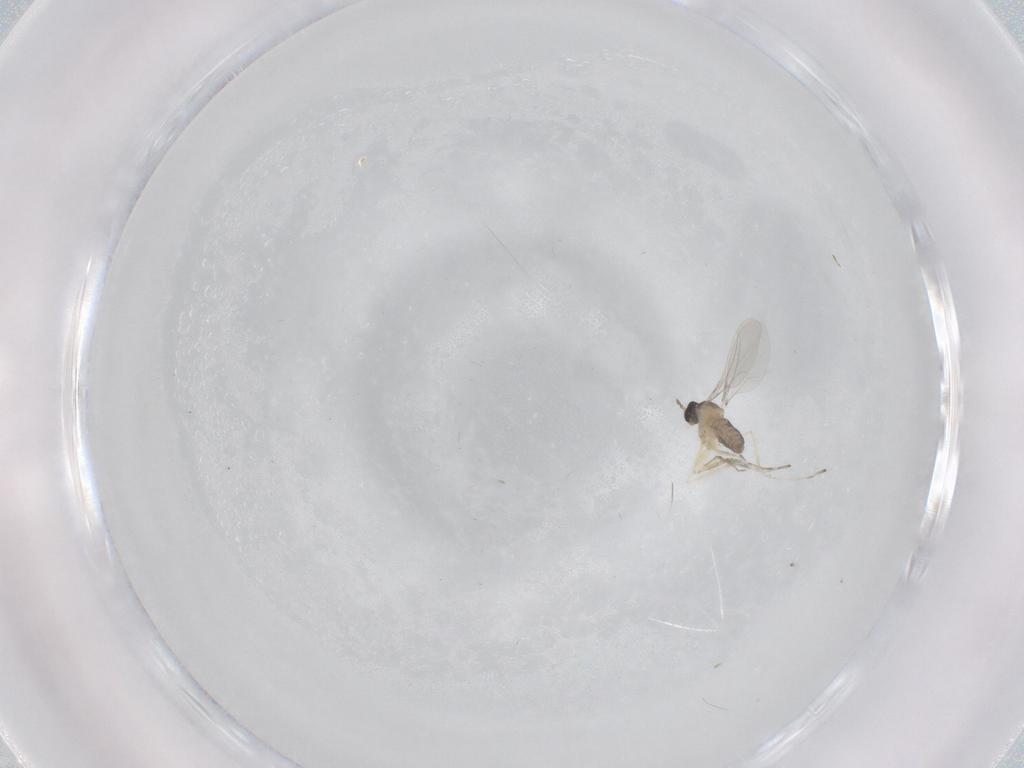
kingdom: Animalia
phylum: Arthropoda
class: Insecta
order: Diptera
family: Cecidomyiidae
